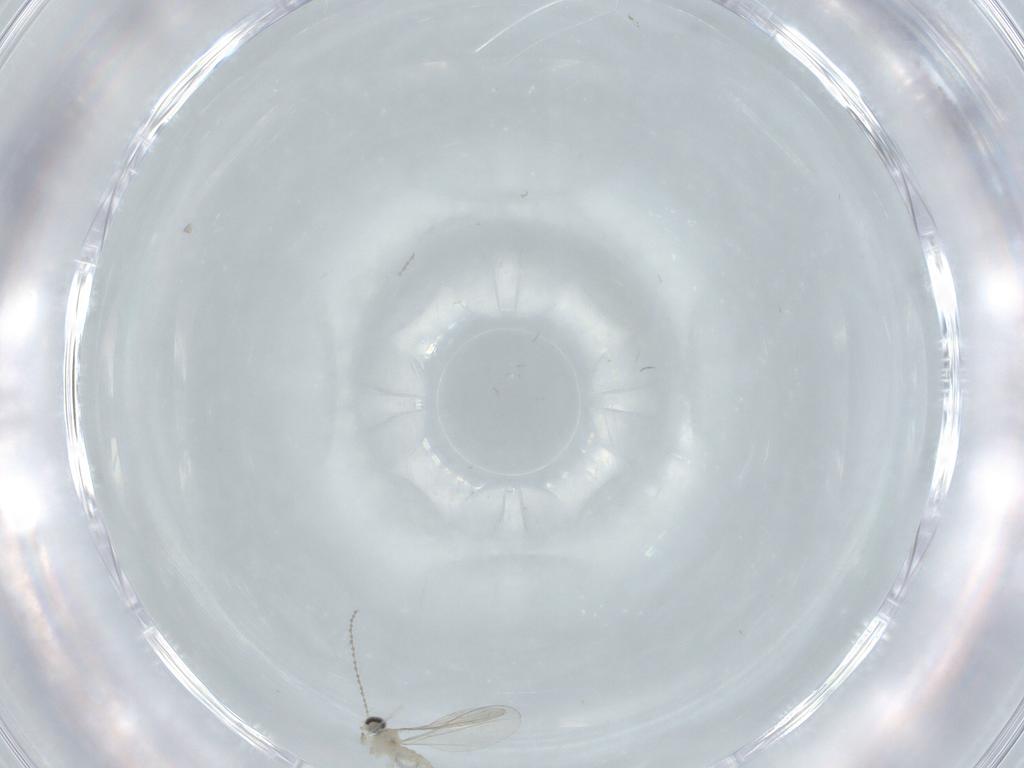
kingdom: Animalia
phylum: Arthropoda
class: Insecta
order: Diptera
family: Cecidomyiidae
